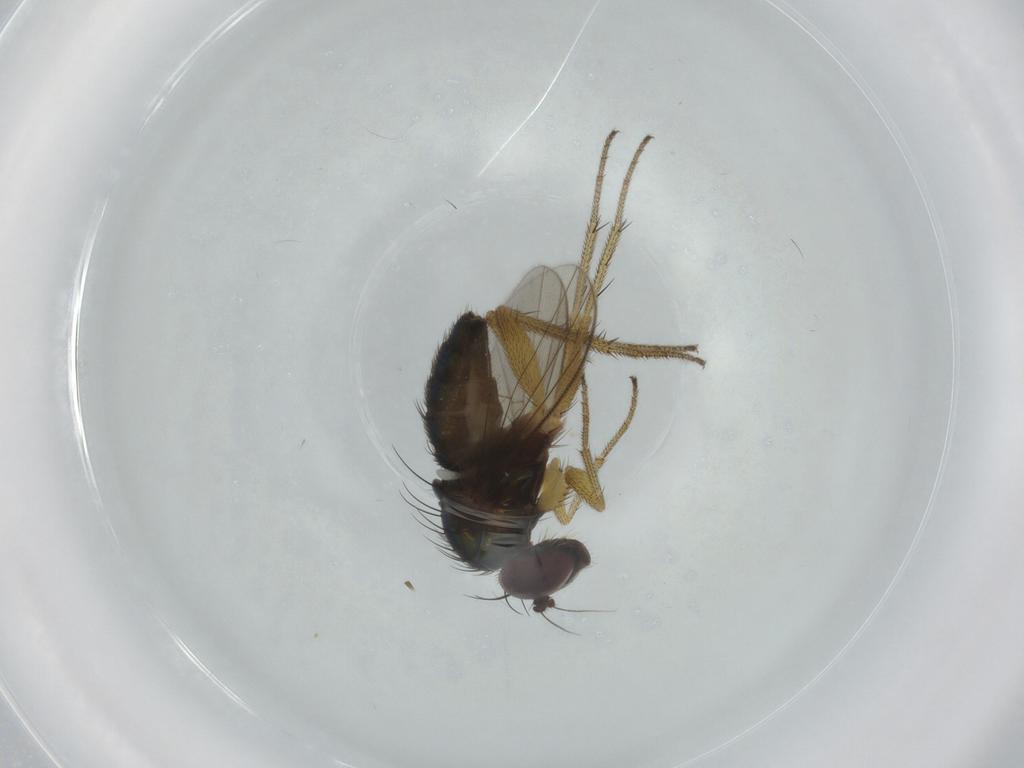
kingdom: Animalia
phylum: Arthropoda
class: Insecta
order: Diptera
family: Dolichopodidae
